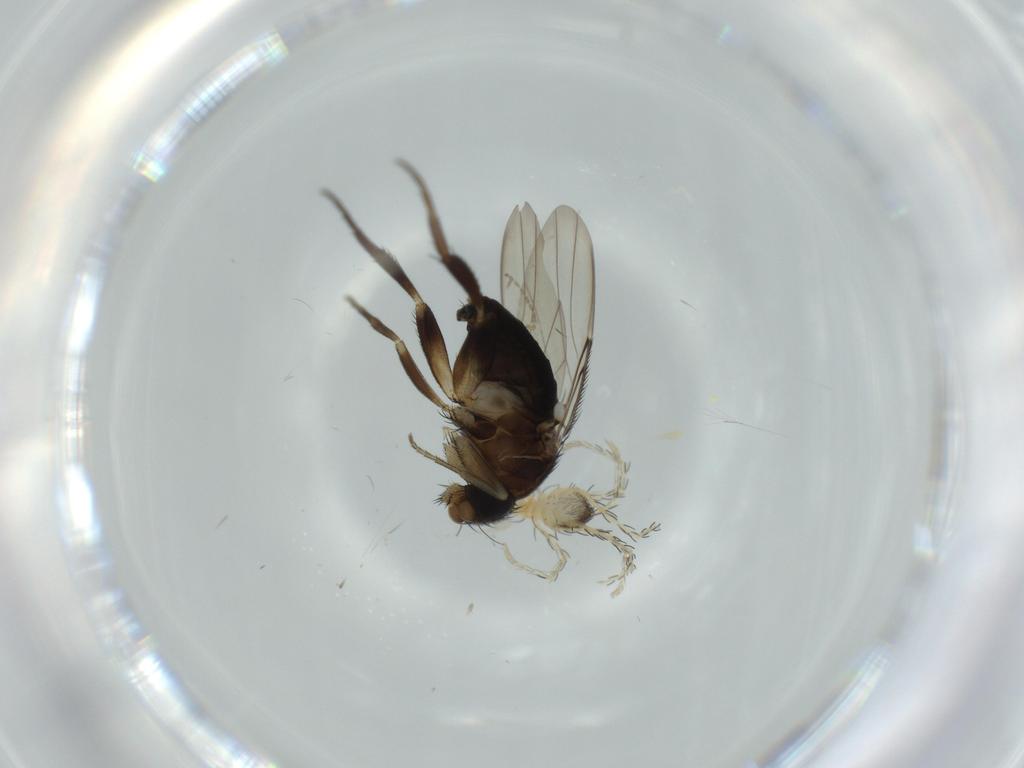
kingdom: Animalia
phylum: Arthropoda
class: Insecta
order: Diptera
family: Phoridae
